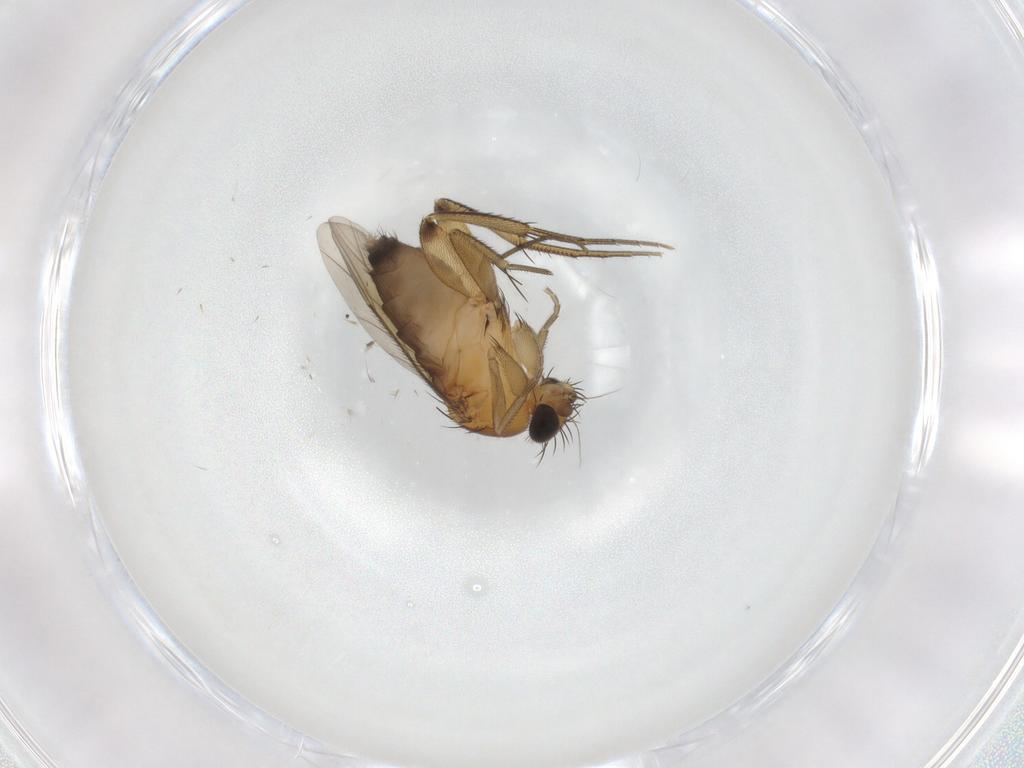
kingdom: Animalia
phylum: Arthropoda
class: Insecta
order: Diptera
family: Phoridae
